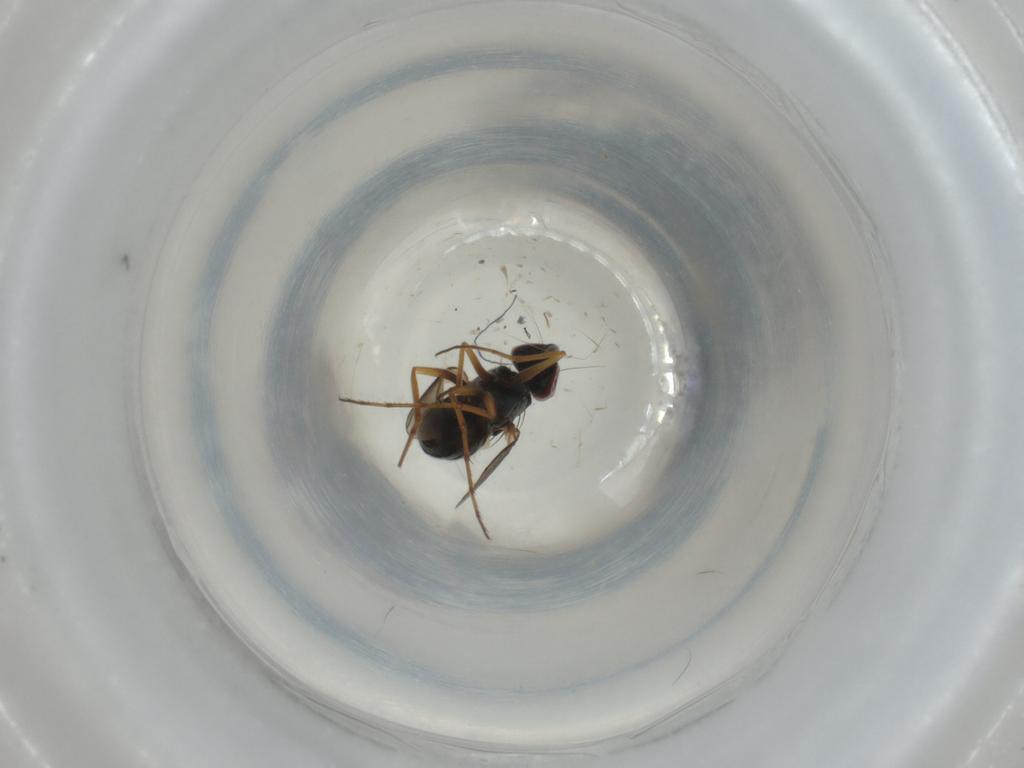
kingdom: Animalia
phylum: Arthropoda
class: Insecta
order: Diptera
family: Dolichopodidae
